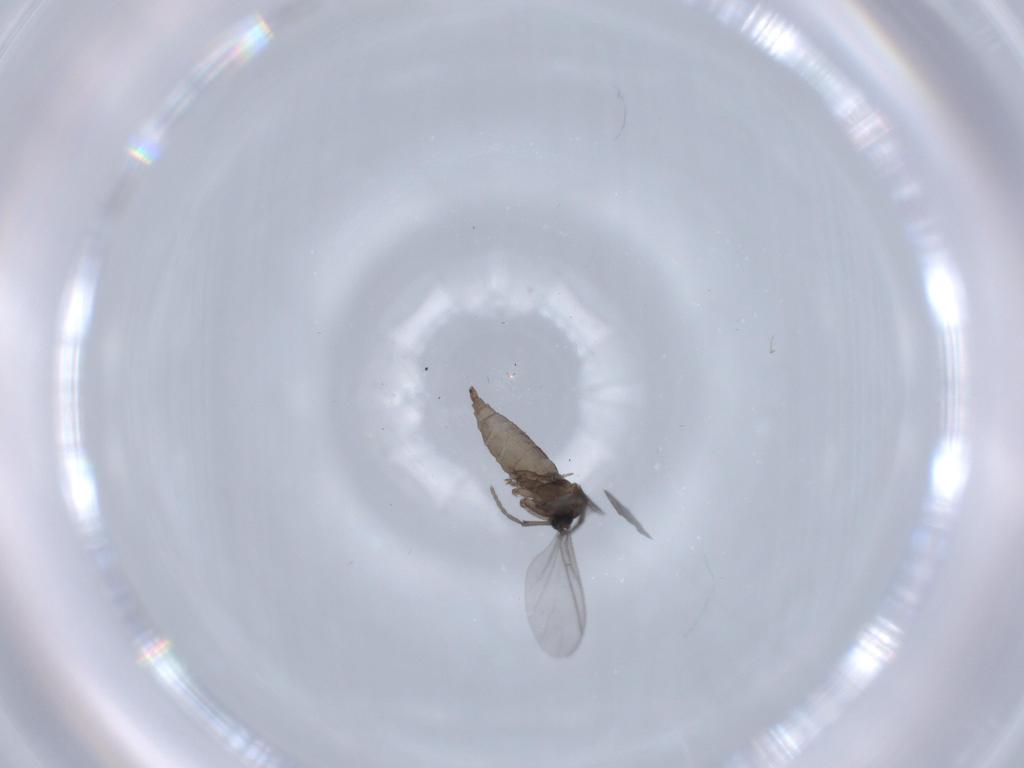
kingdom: Animalia
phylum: Arthropoda
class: Insecta
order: Diptera
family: Sciaridae
